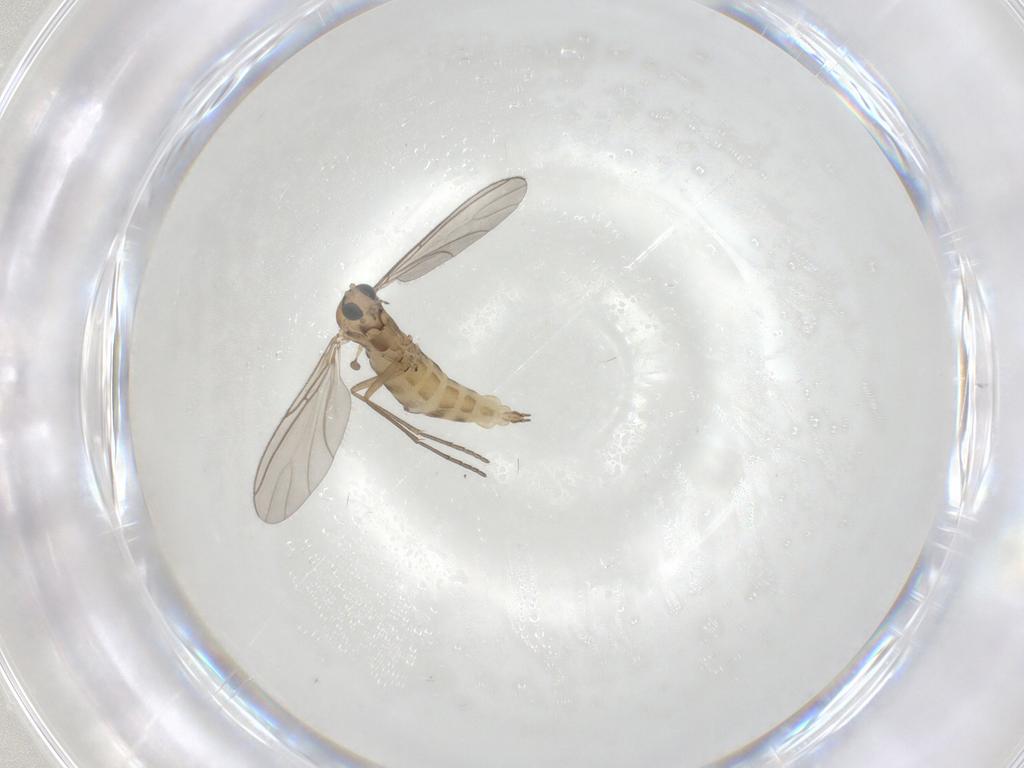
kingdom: Animalia
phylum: Arthropoda
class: Insecta
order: Diptera
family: Sciaridae
